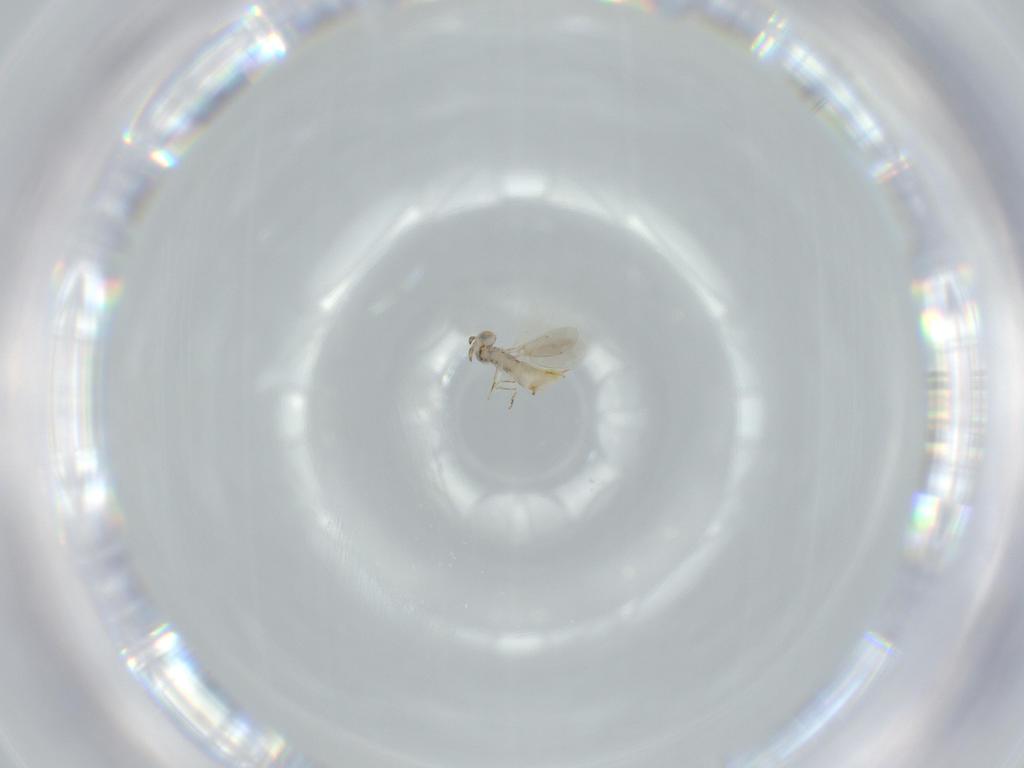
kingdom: Animalia
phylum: Arthropoda
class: Insecta
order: Hymenoptera
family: Aphelinidae
